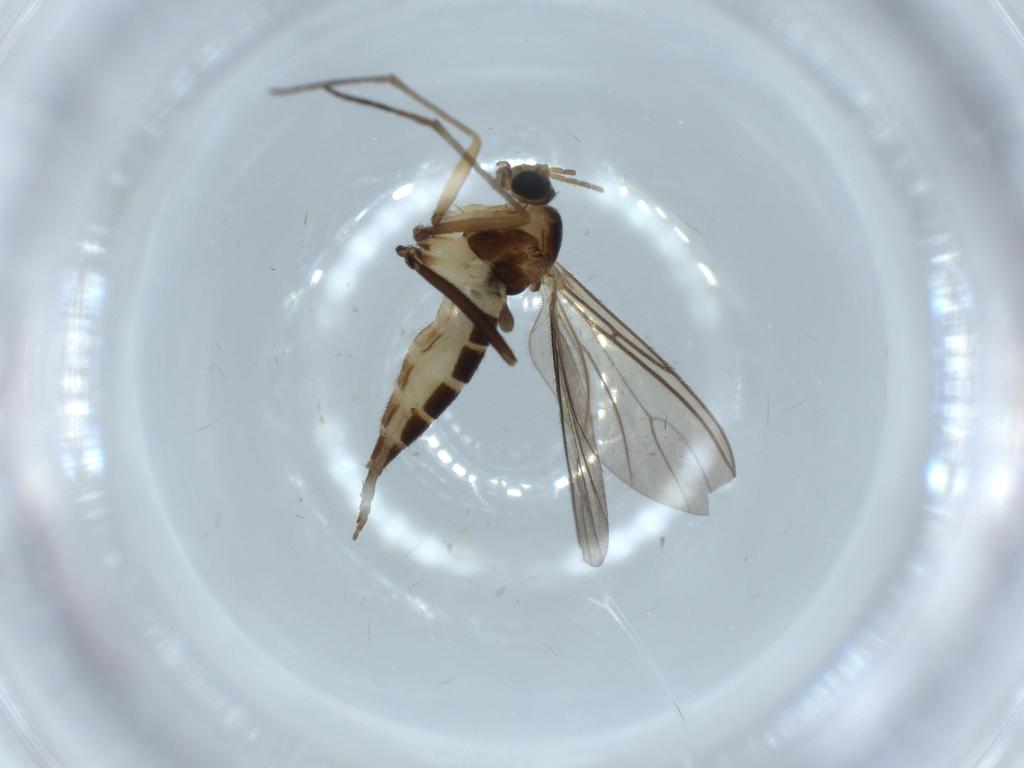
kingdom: Animalia
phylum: Arthropoda
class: Insecta
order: Diptera
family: Sciaridae
